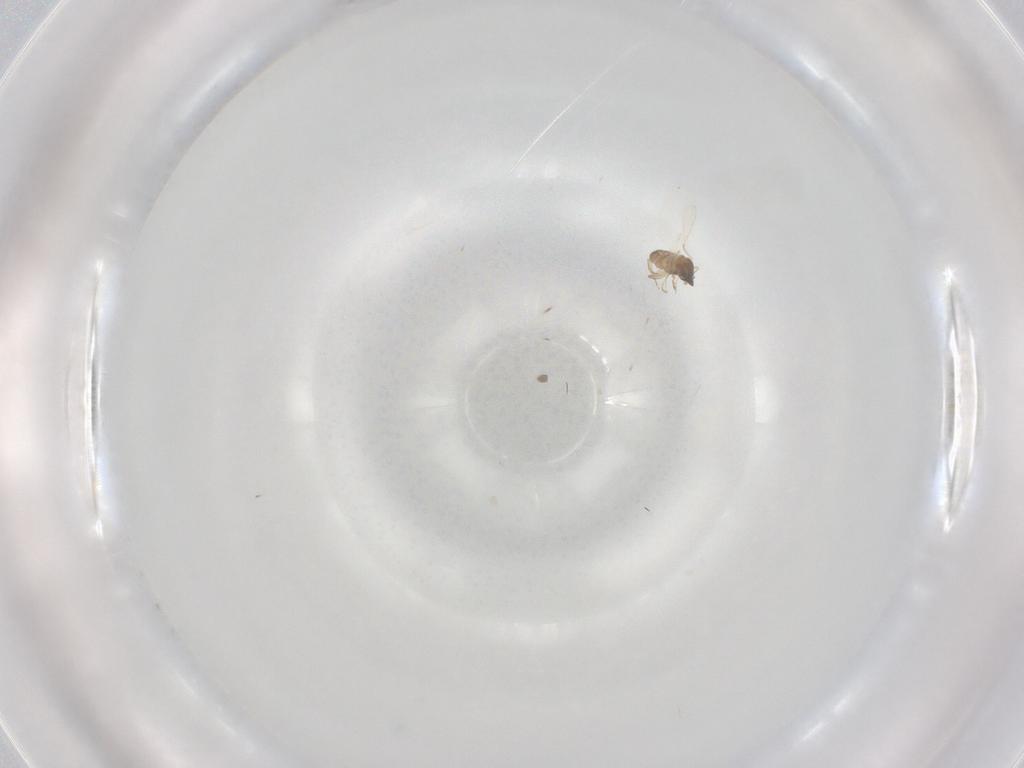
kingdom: Animalia
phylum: Arthropoda
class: Insecta
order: Diptera
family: Cecidomyiidae
